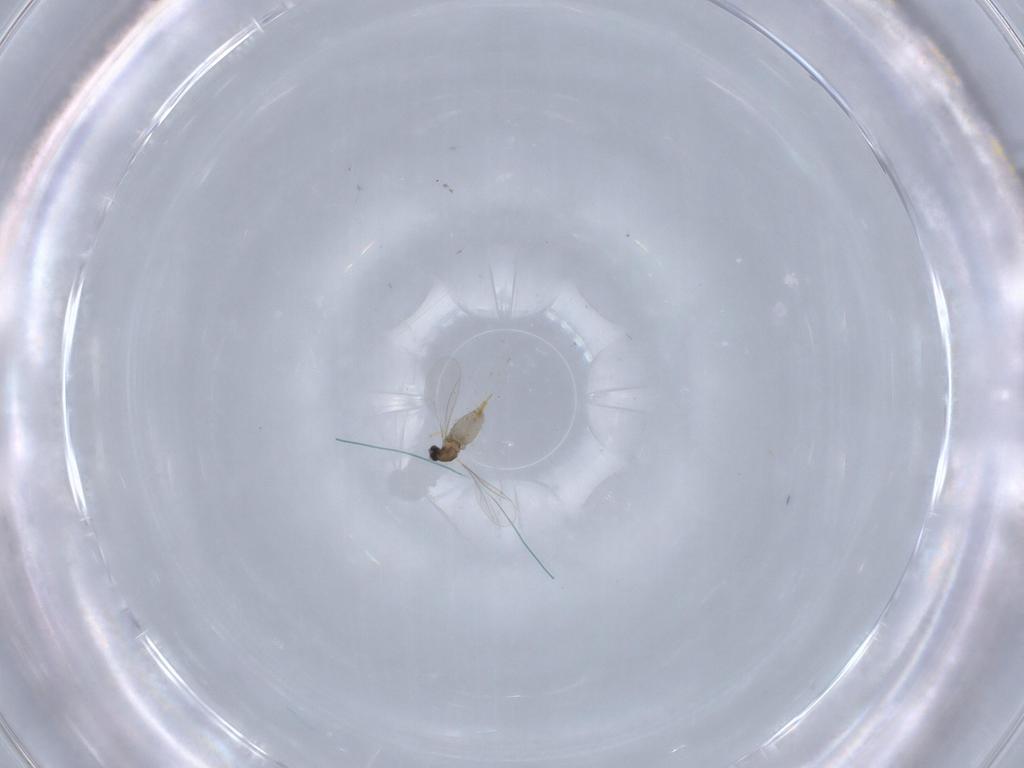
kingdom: Animalia
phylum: Arthropoda
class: Insecta
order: Diptera
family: Cecidomyiidae
